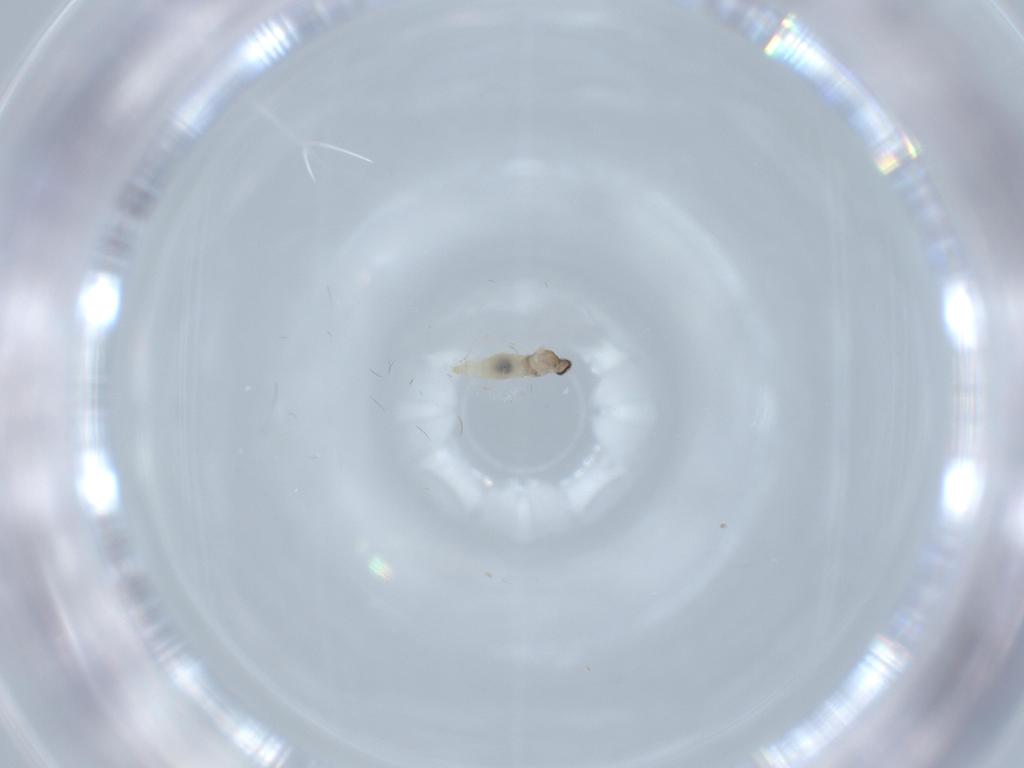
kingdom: Animalia
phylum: Arthropoda
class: Insecta
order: Diptera
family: Cecidomyiidae
